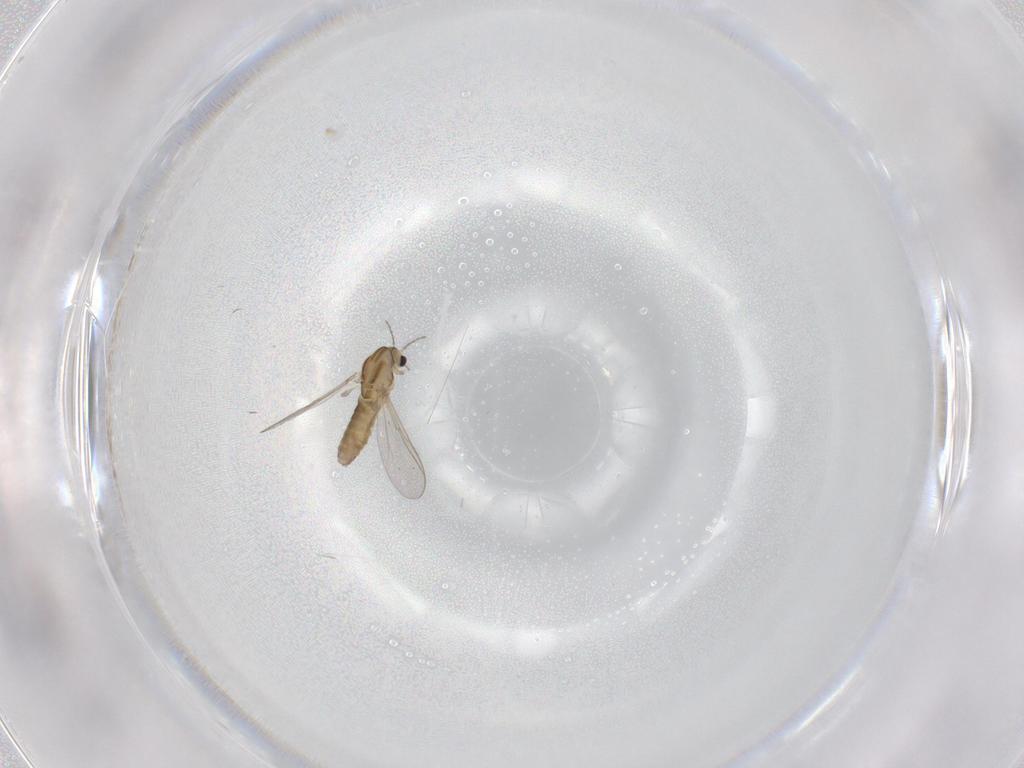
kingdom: Animalia
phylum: Arthropoda
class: Insecta
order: Diptera
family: Chironomidae
